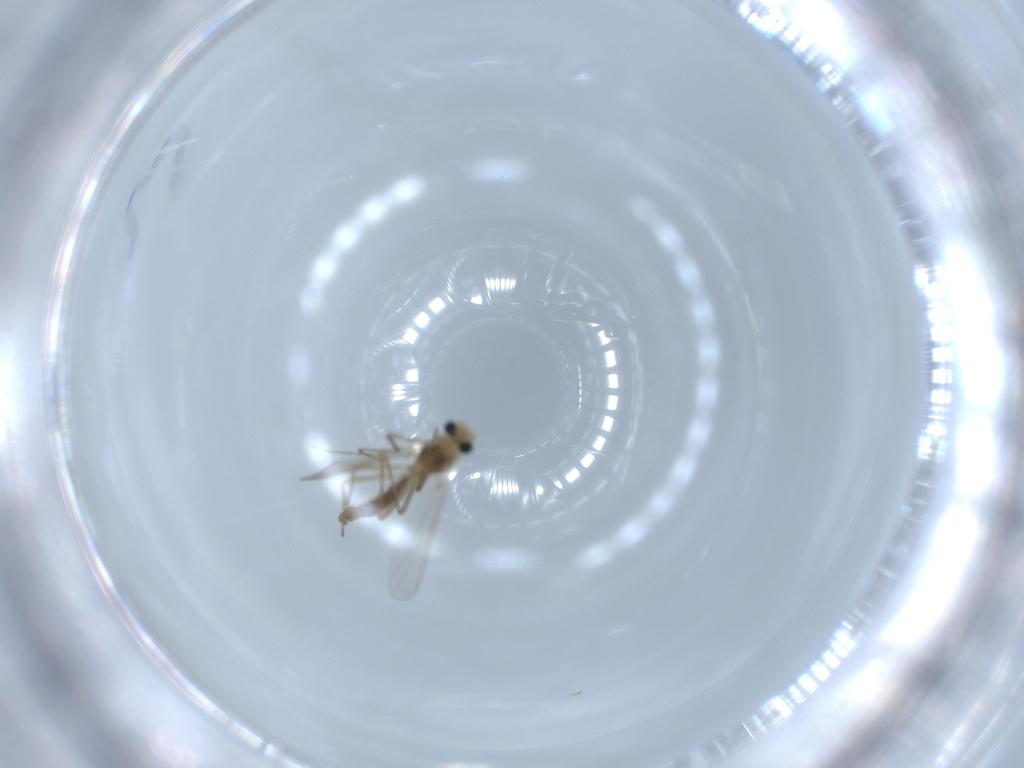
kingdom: Animalia
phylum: Arthropoda
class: Insecta
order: Diptera
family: Chironomidae
